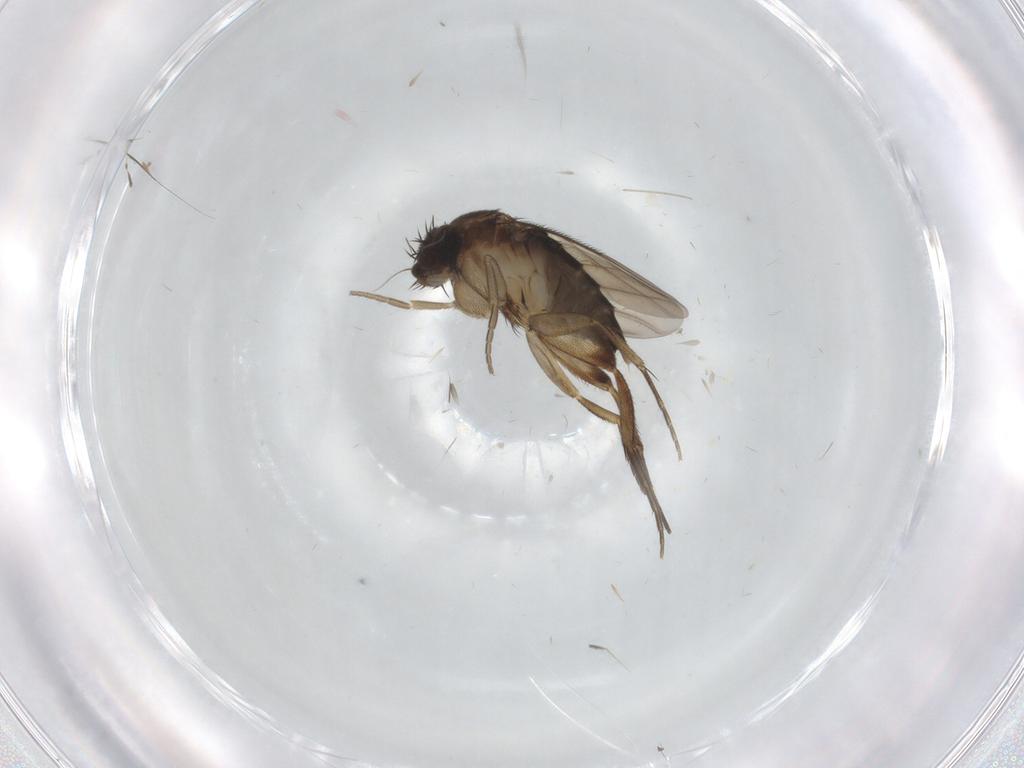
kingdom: Animalia
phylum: Arthropoda
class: Insecta
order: Diptera
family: Phoridae
